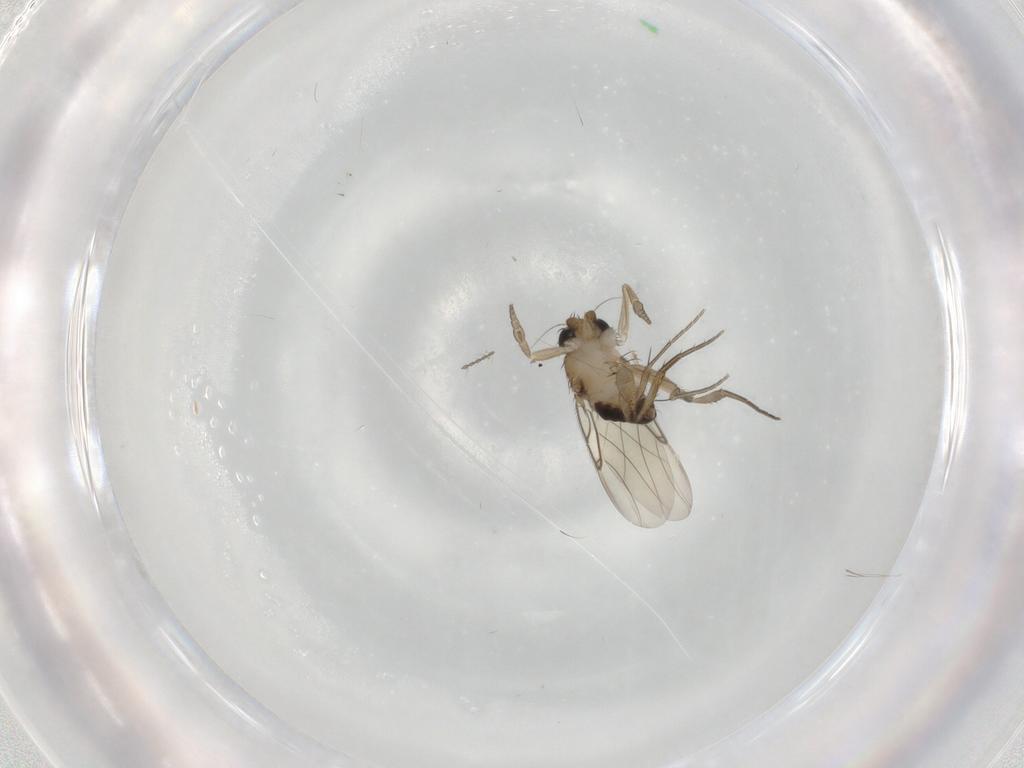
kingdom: Animalia
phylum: Arthropoda
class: Insecta
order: Diptera
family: Phoridae
